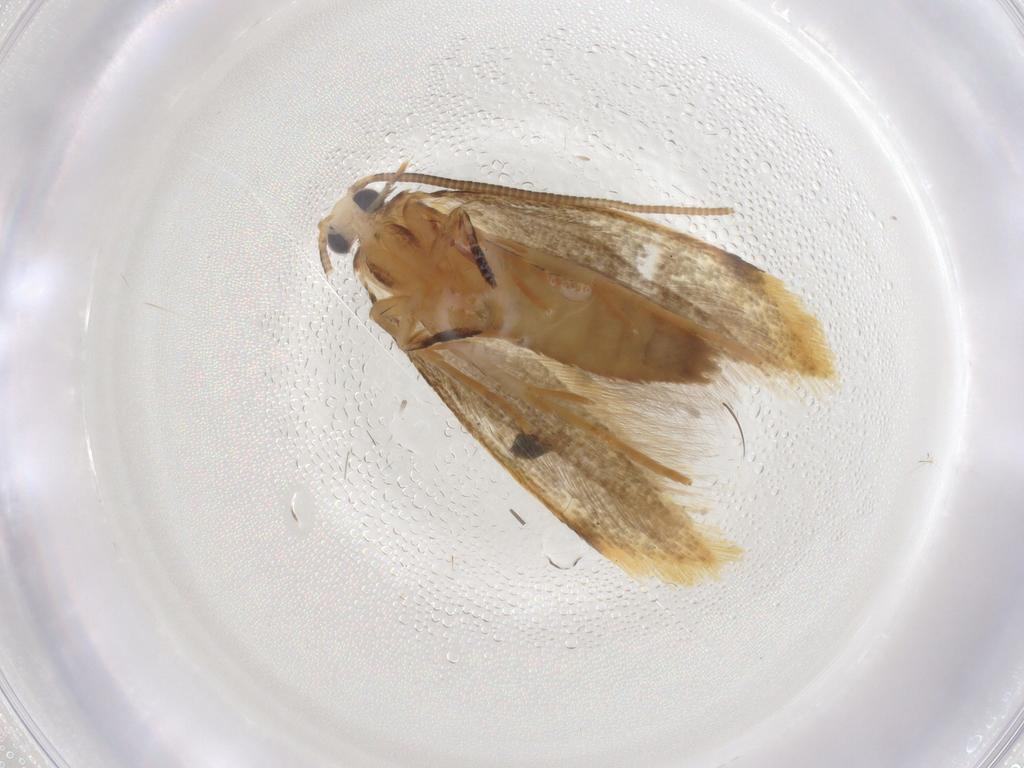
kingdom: Animalia
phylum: Arthropoda
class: Insecta
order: Lepidoptera
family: Tineidae
